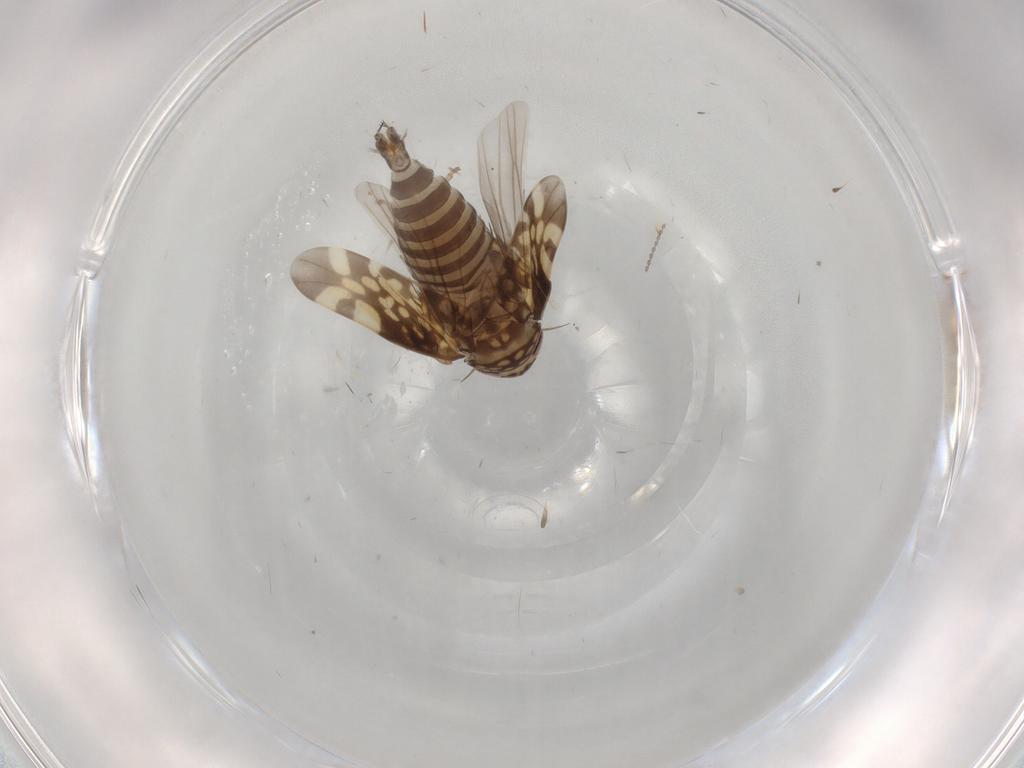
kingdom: Animalia
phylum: Arthropoda
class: Insecta
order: Hemiptera
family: Cicadellidae
